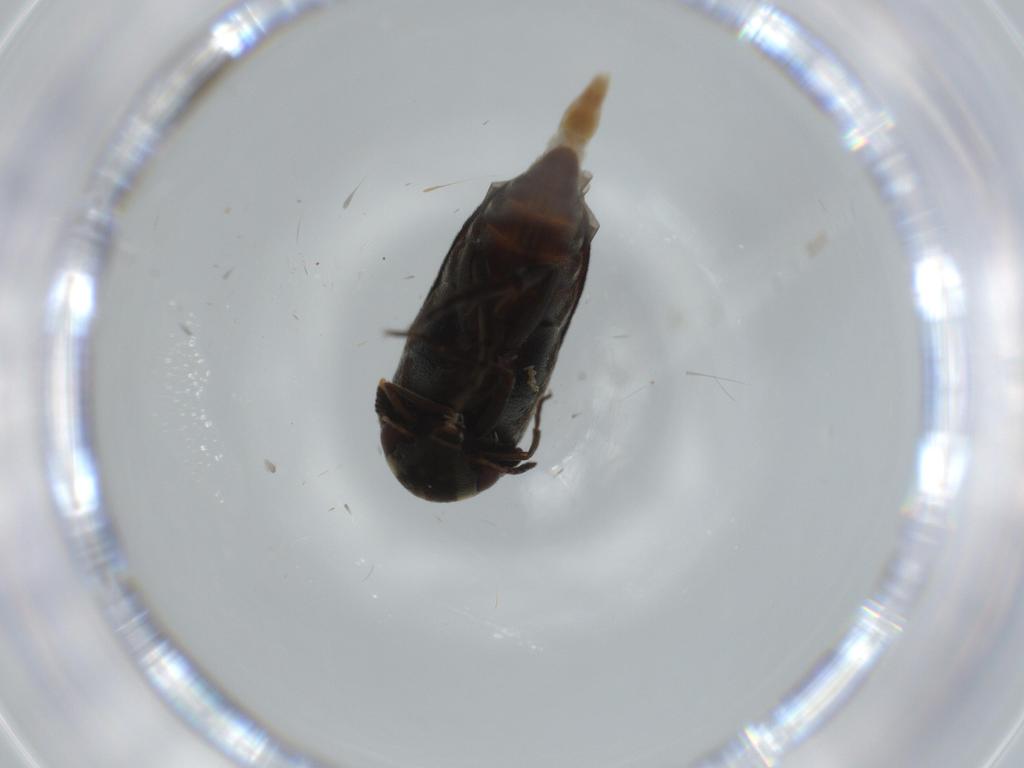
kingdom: Animalia
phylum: Arthropoda
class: Insecta
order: Coleoptera
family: Mordellidae
